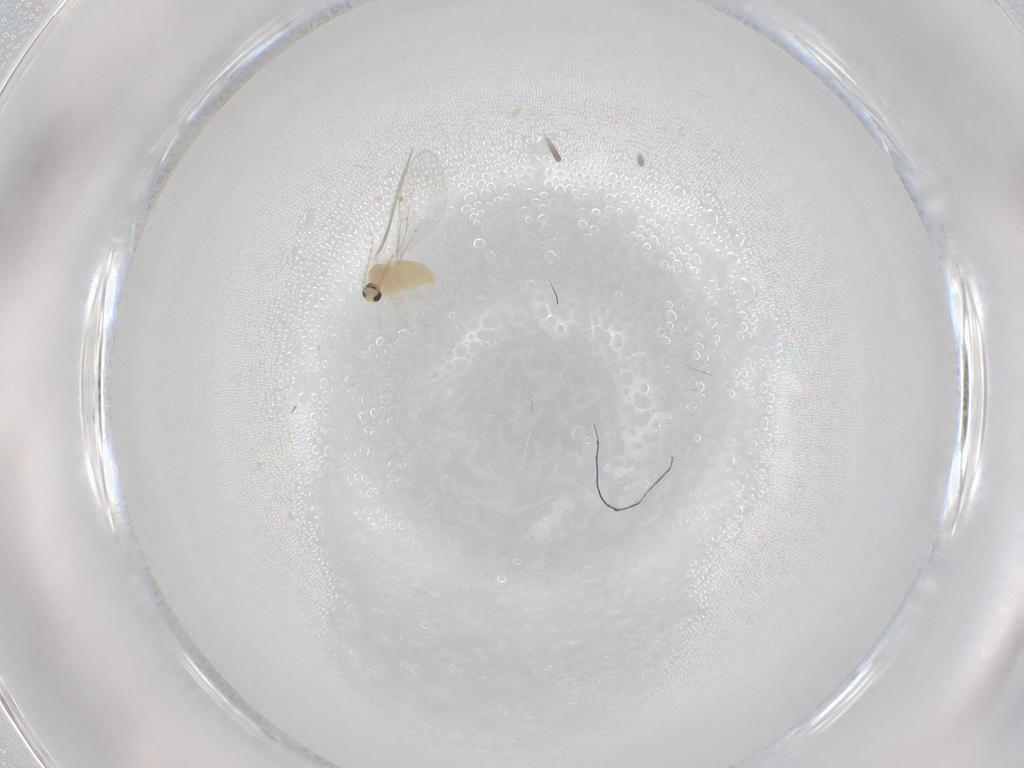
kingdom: Animalia
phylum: Arthropoda
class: Insecta
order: Diptera
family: Cecidomyiidae
